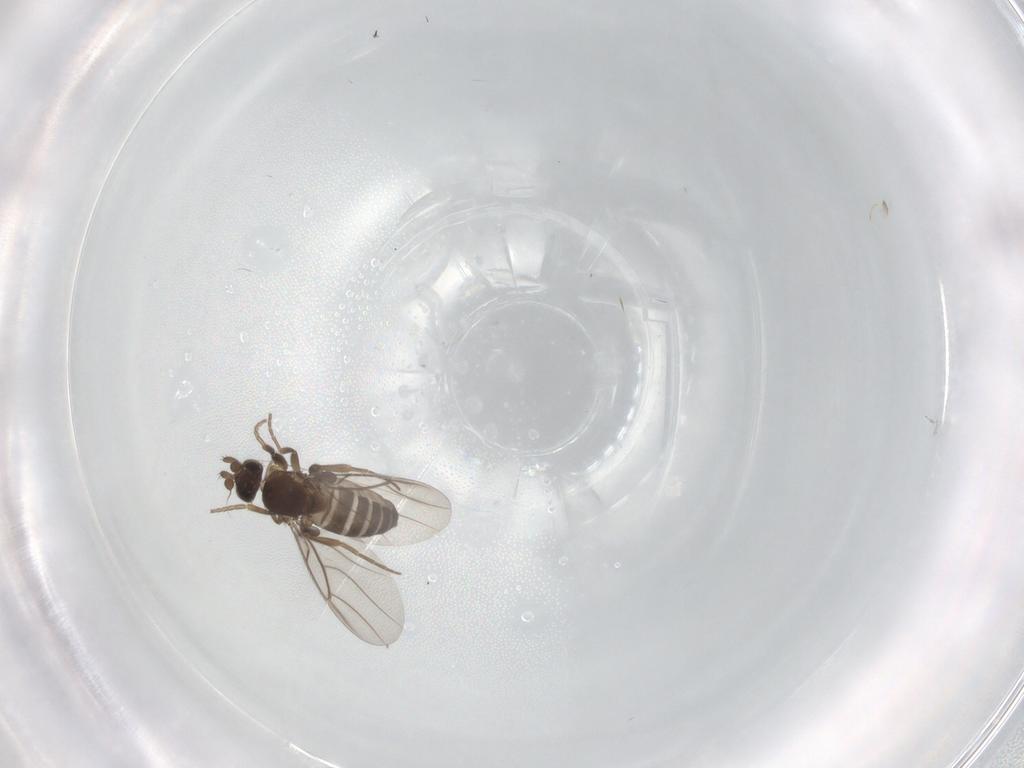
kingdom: Animalia
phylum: Arthropoda
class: Insecta
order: Diptera
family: Phoridae
